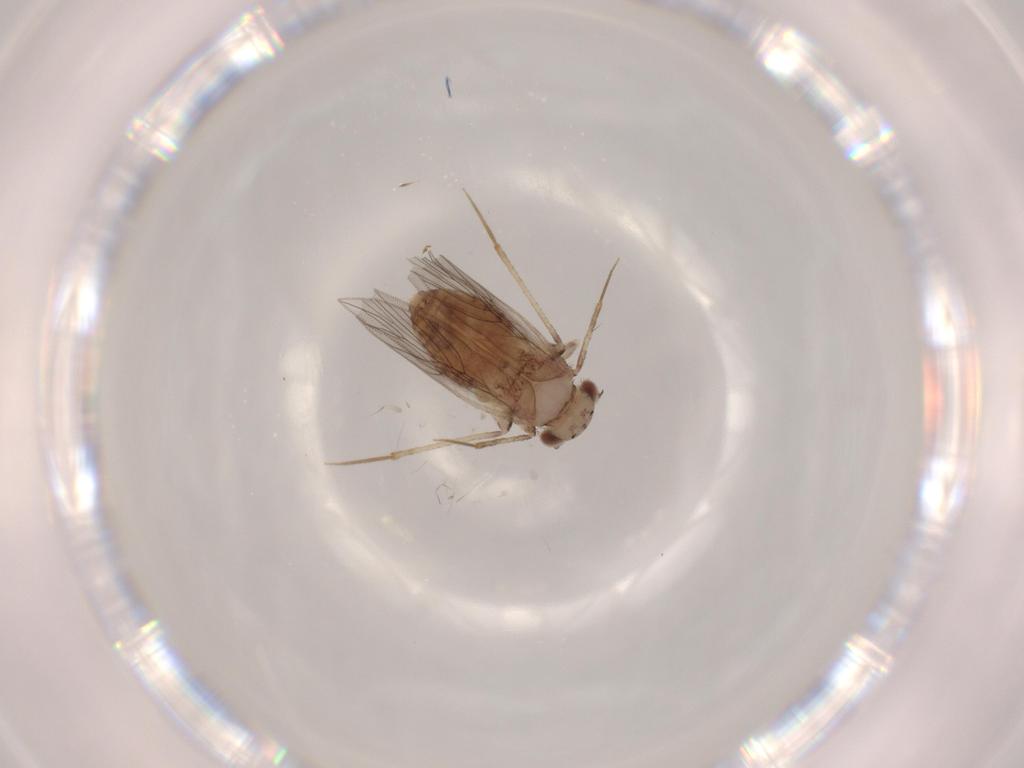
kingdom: Animalia
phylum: Arthropoda
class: Insecta
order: Psocodea
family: Lepidopsocidae
